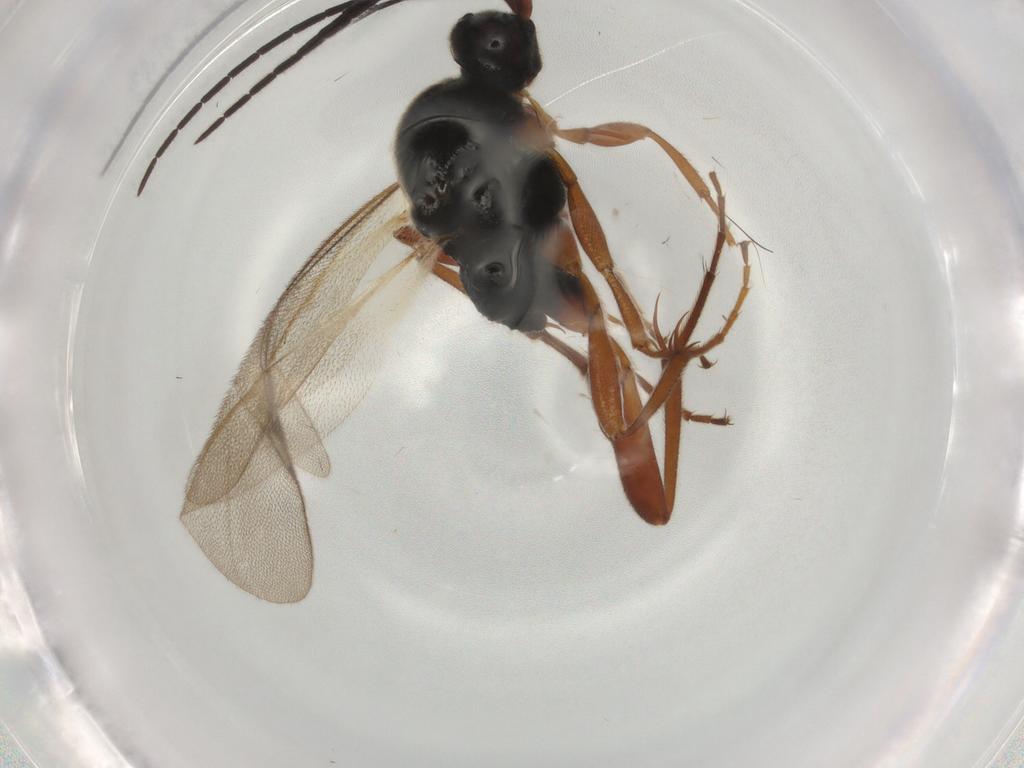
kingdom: Animalia
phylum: Arthropoda
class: Insecta
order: Hymenoptera
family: Proctotrupidae
